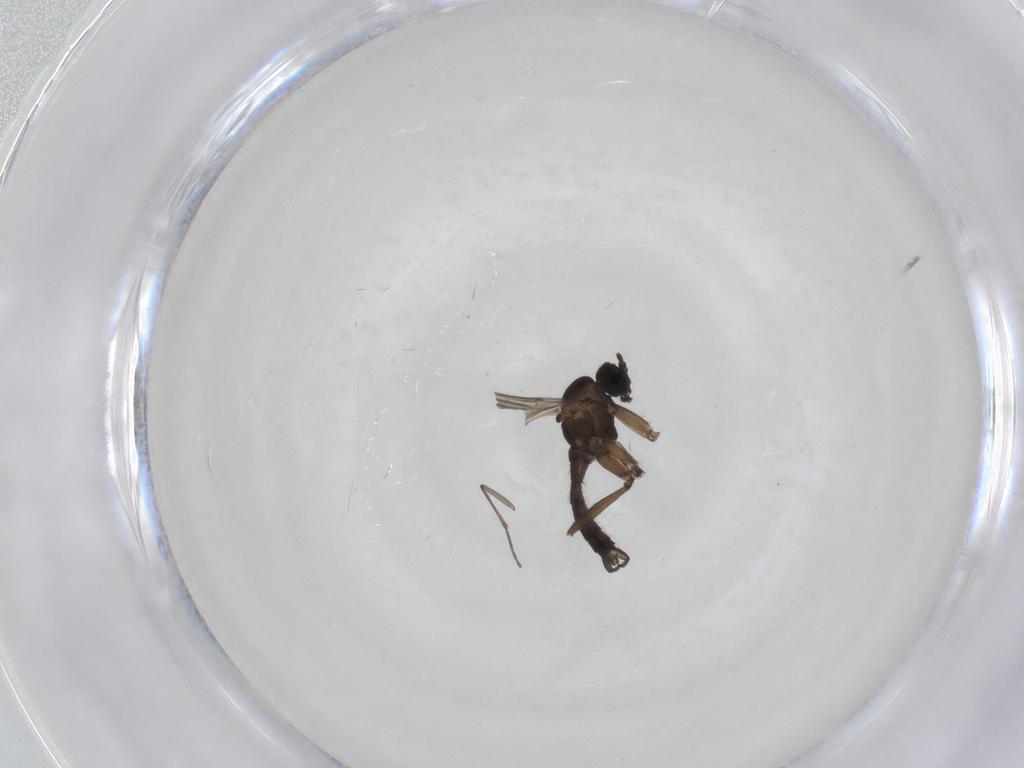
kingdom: Animalia
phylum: Arthropoda
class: Insecta
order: Diptera
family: Sciaridae
